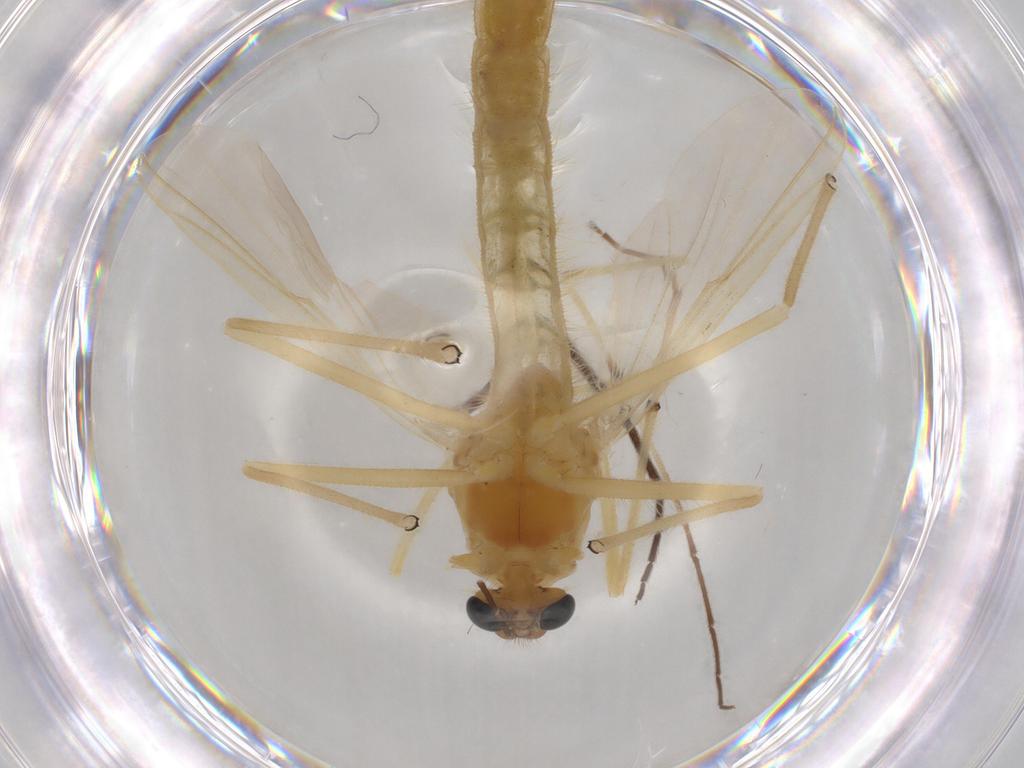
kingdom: Animalia
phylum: Arthropoda
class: Insecta
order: Diptera
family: Chironomidae
